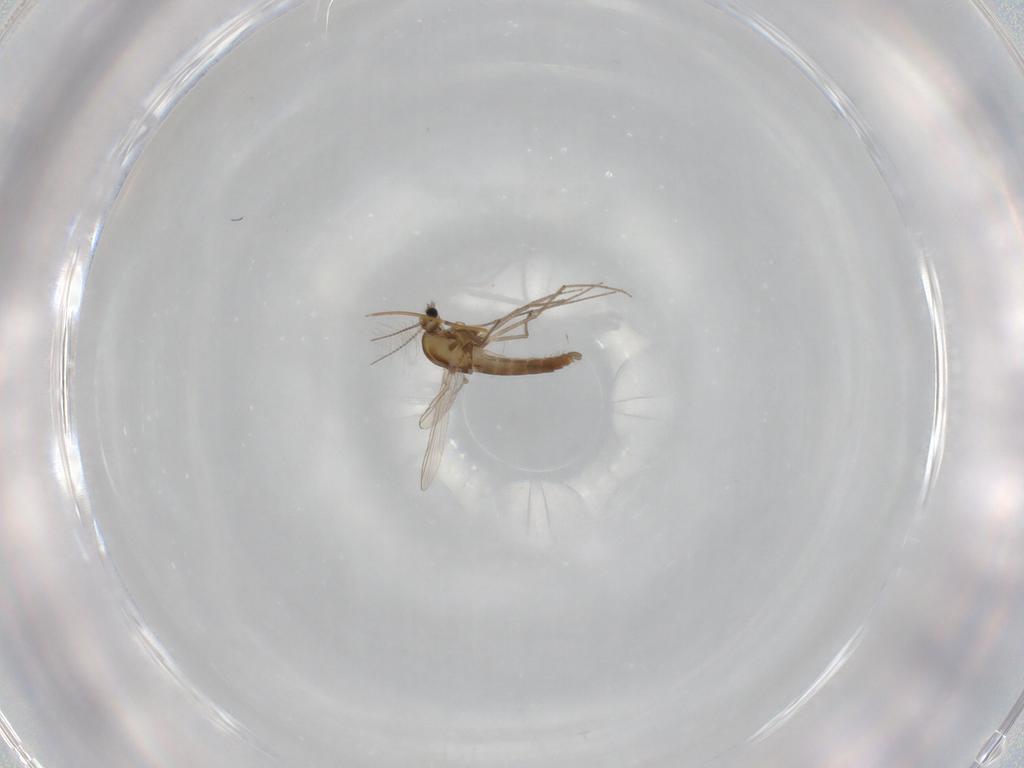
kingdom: Animalia
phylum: Arthropoda
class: Insecta
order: Diptera
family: Chironomidae
